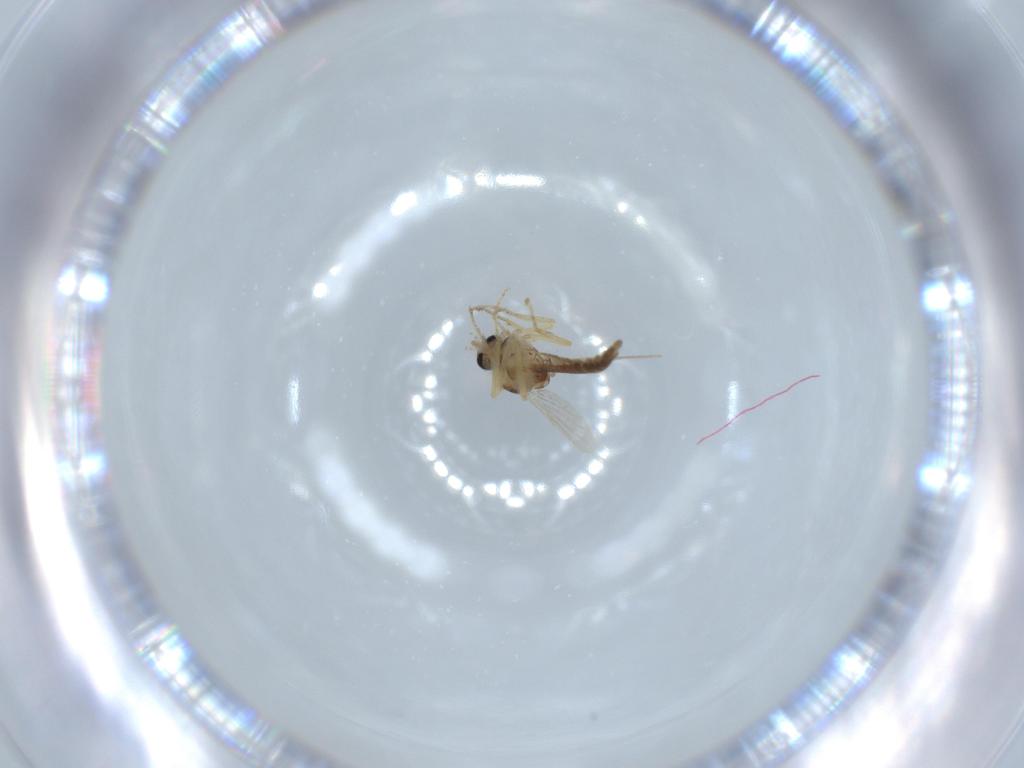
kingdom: Animalia
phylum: Arthropoda
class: Insecta
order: Diptera
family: Ceratopogonidae
